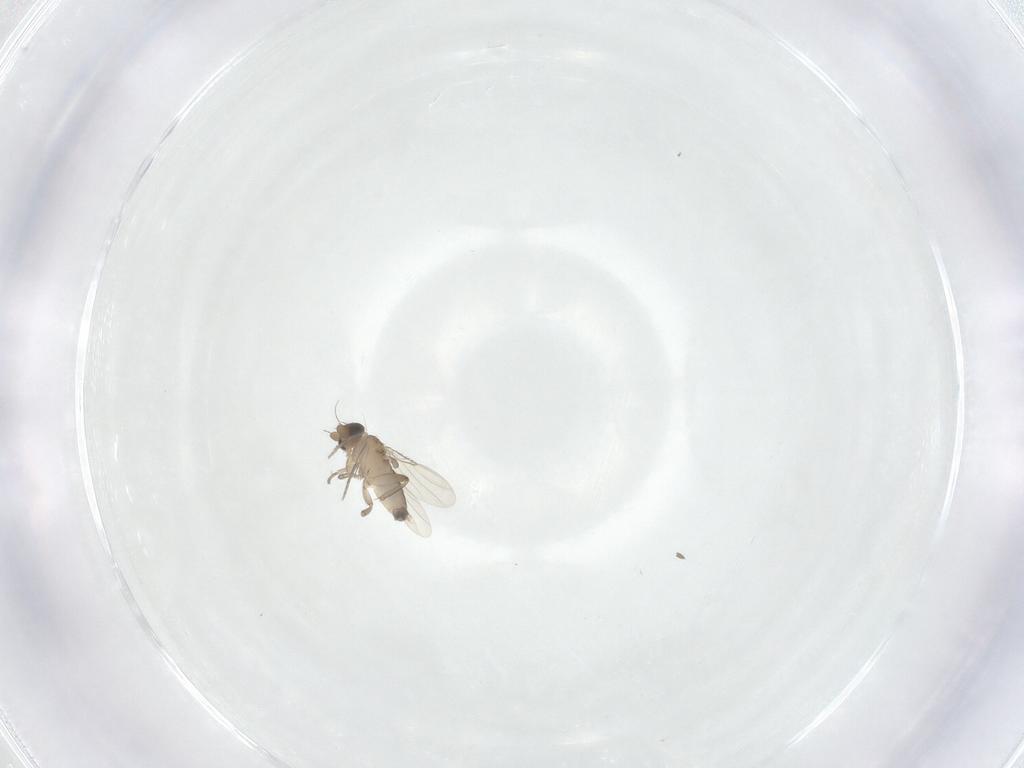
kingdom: Animalia
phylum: Arthropoda
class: Insecta
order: Diptera
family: Phoridae
